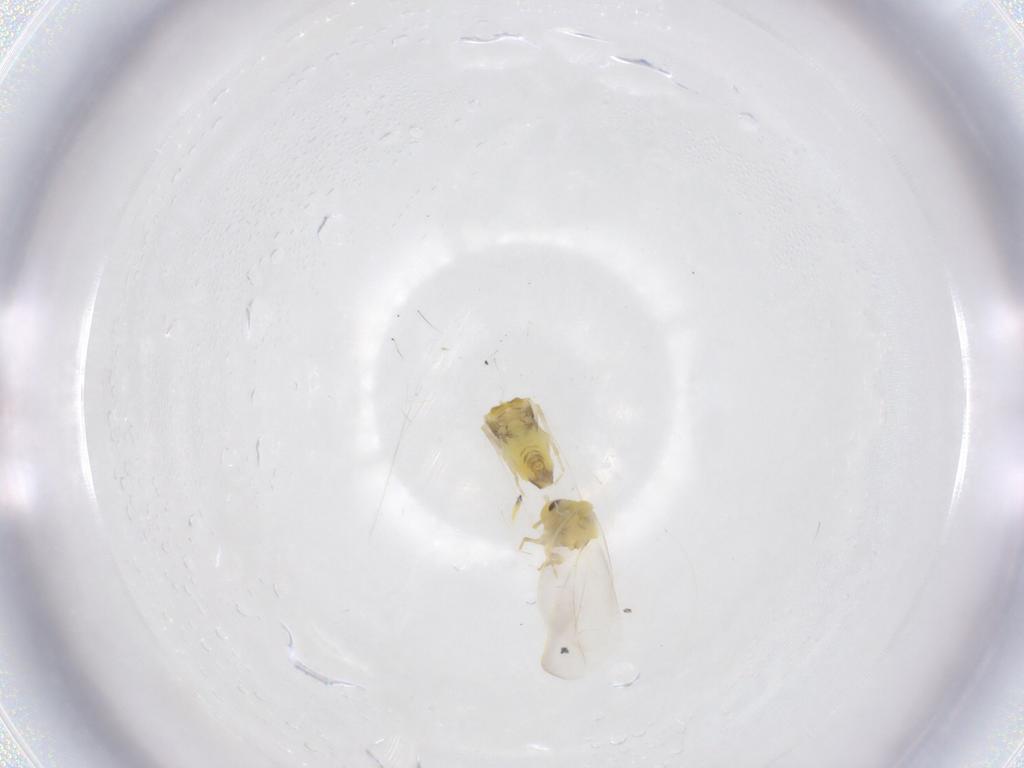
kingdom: Animalia
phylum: Arthropoda
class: Insecta
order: Hemiptera
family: Aleyrodidae
